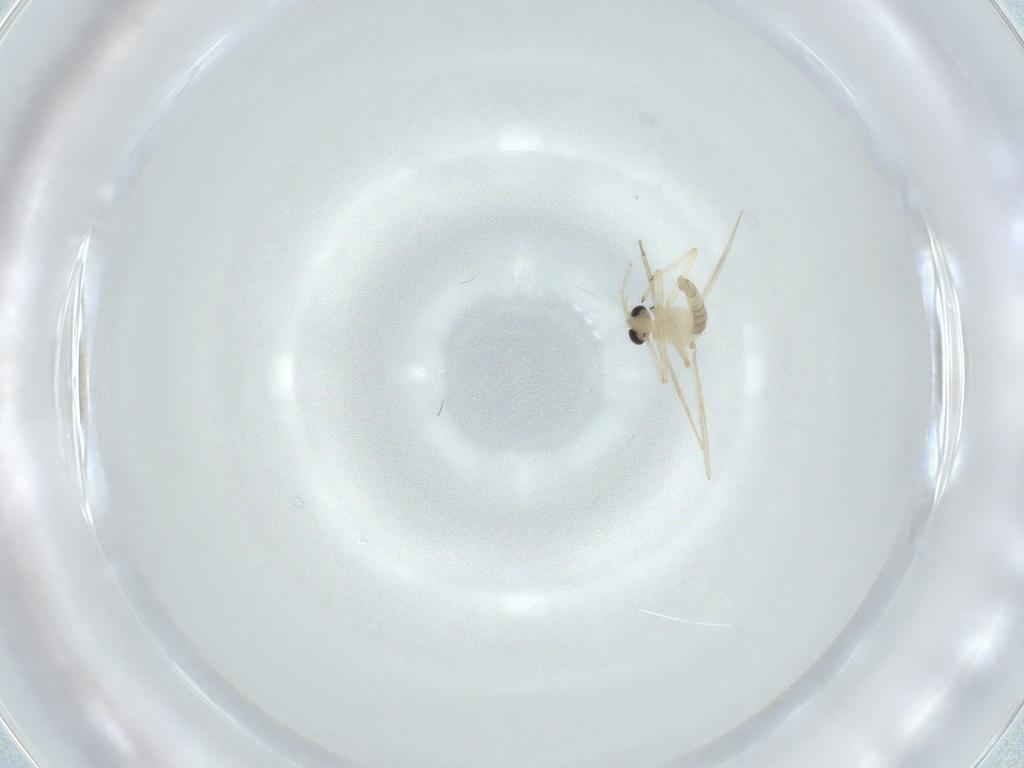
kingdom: Animalia
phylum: Arthropoda
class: Insecta
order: Diptera
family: Chironomidae
